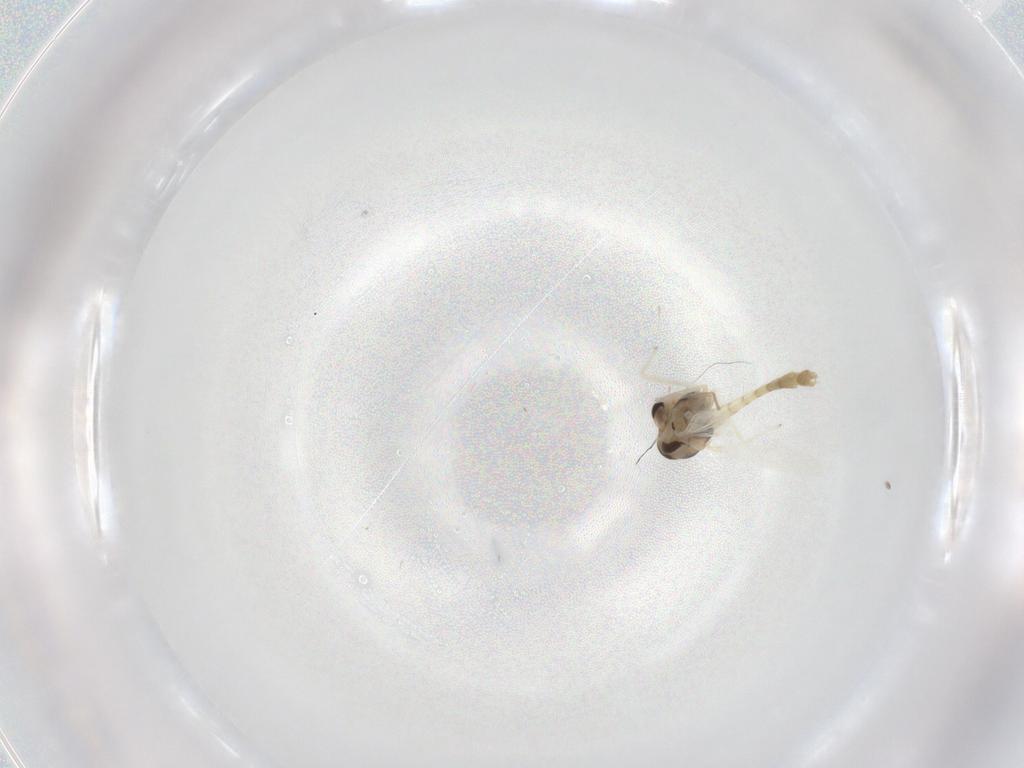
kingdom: Animalia
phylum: Arthropoda
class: Insecta
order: Diptera
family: Chironomidae
